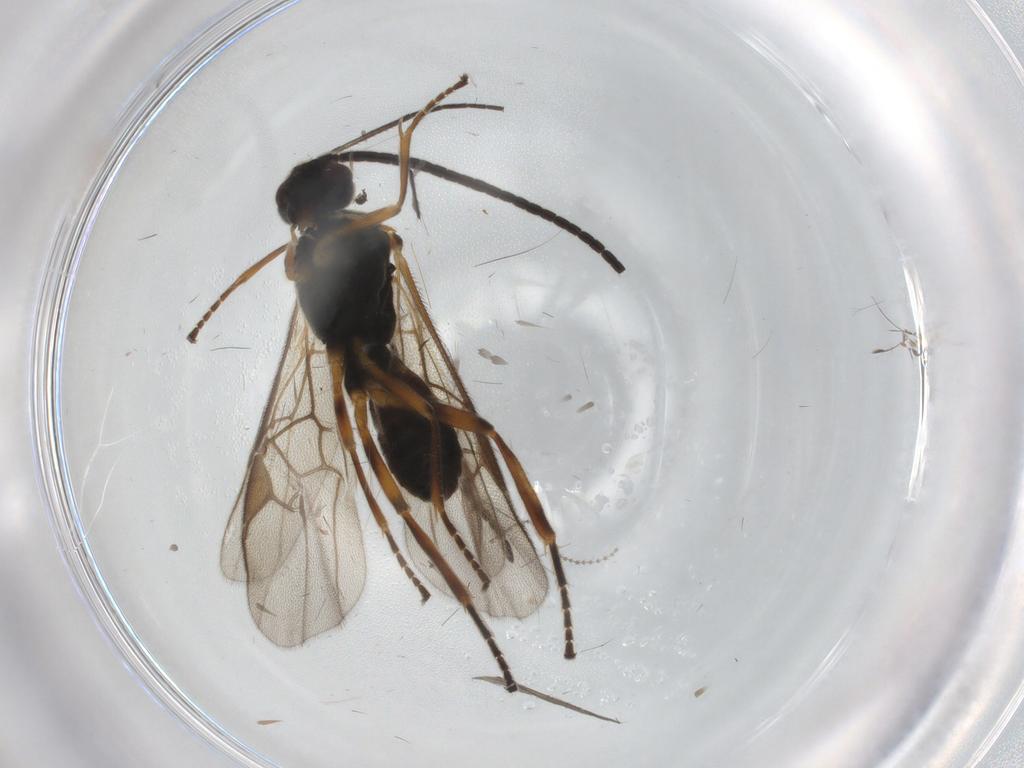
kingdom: Animalia
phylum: Arthropoda
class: Insecta
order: Hymenoptera
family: Braconidae
